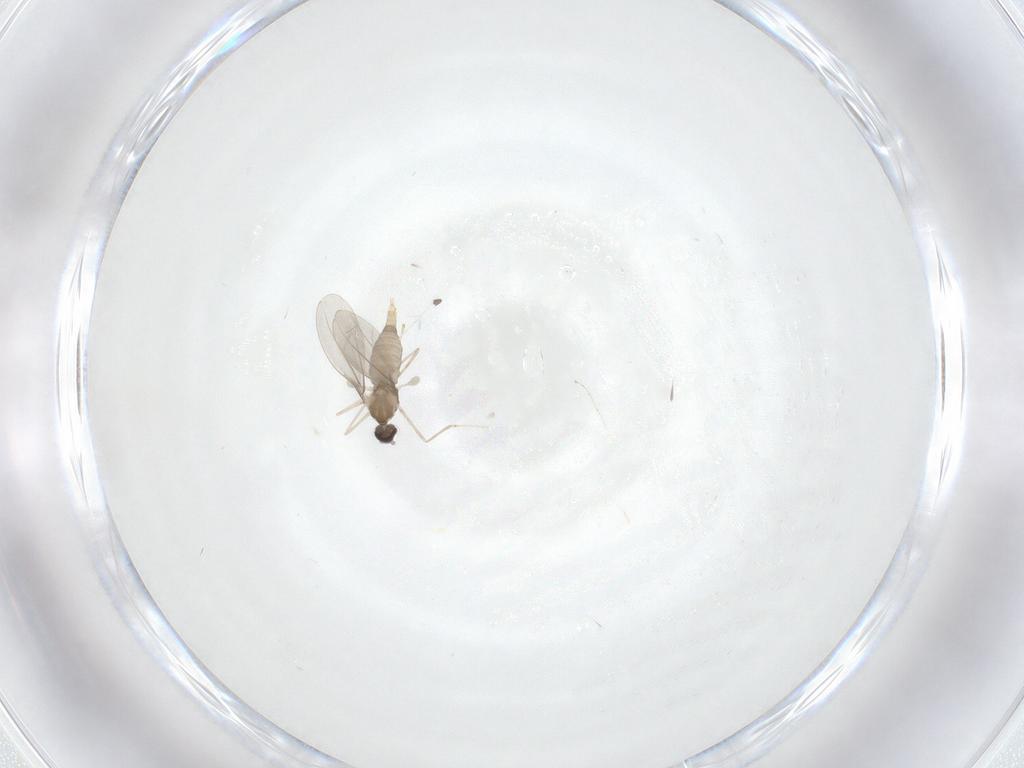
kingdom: Animalia
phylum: Arthropoda
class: Insecta
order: Diptera
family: Cecidomyiidae
